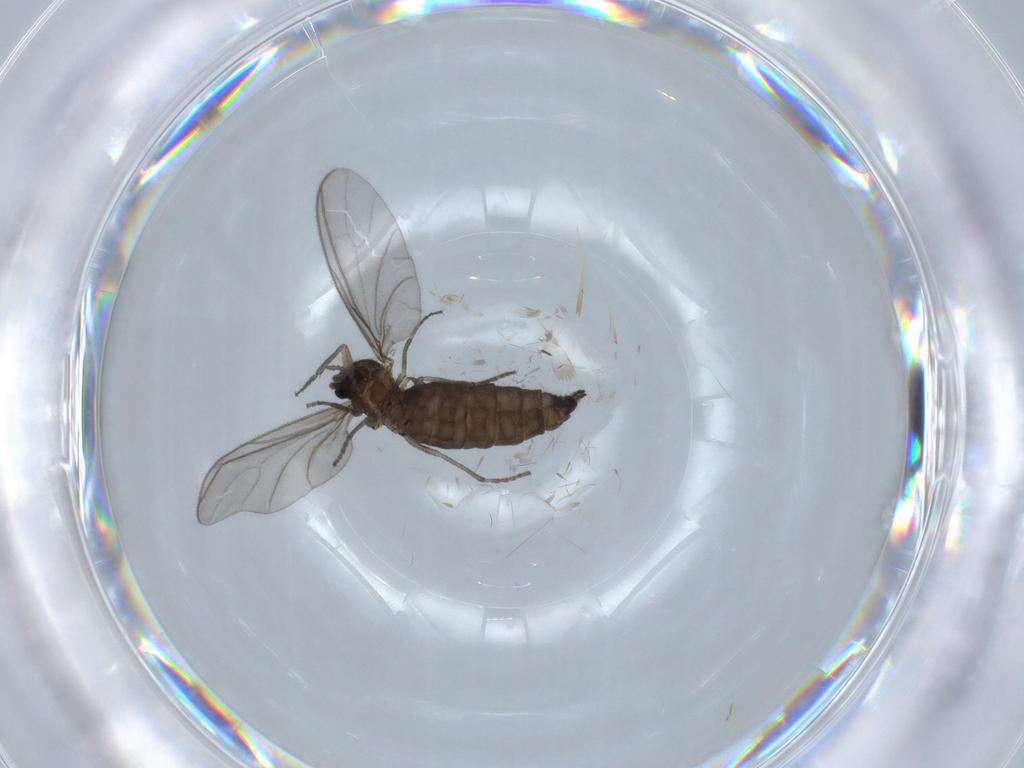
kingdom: Animalia
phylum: Arthropoda
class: Insecta
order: Diptera
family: Sciaridae
